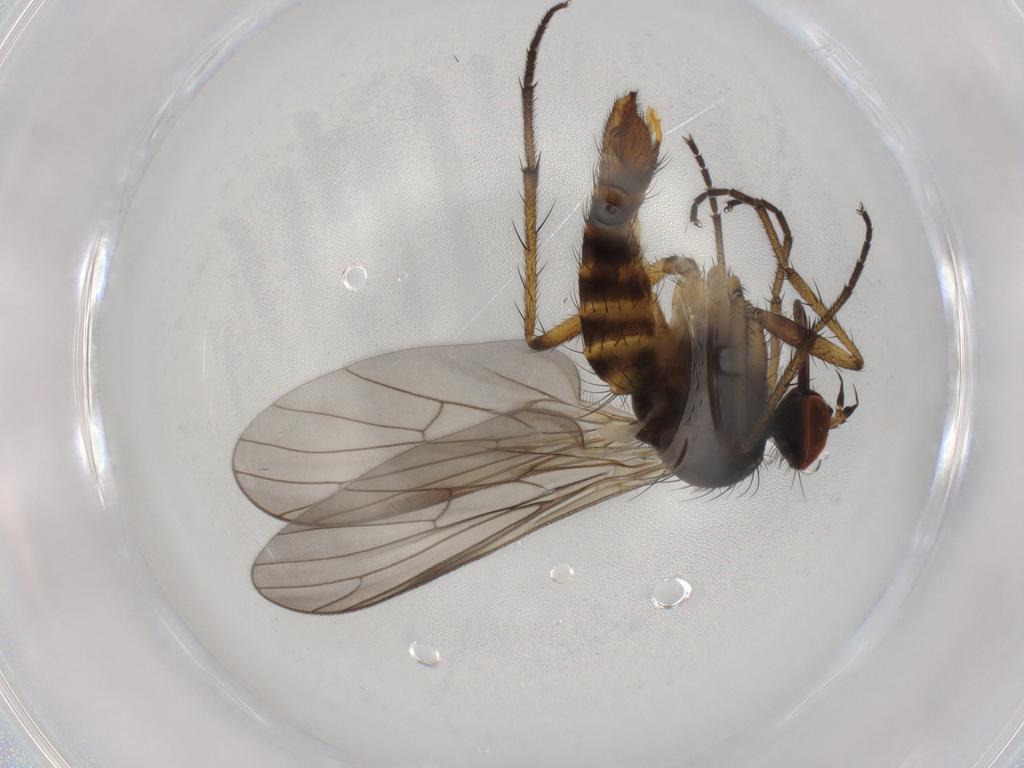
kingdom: Animalia
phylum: Arthropoda
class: Insecta
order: Diptera
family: Empididae
